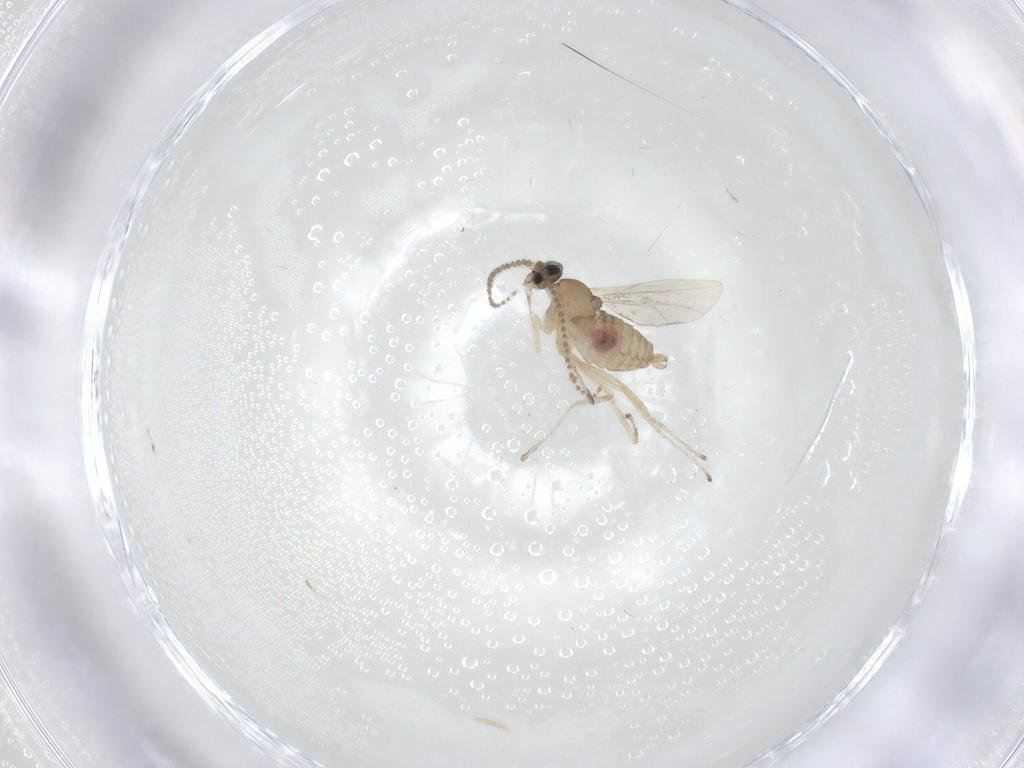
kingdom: Animalia
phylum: Arthropoda
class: Insecta
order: Diptera
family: Cecidomyiidae
